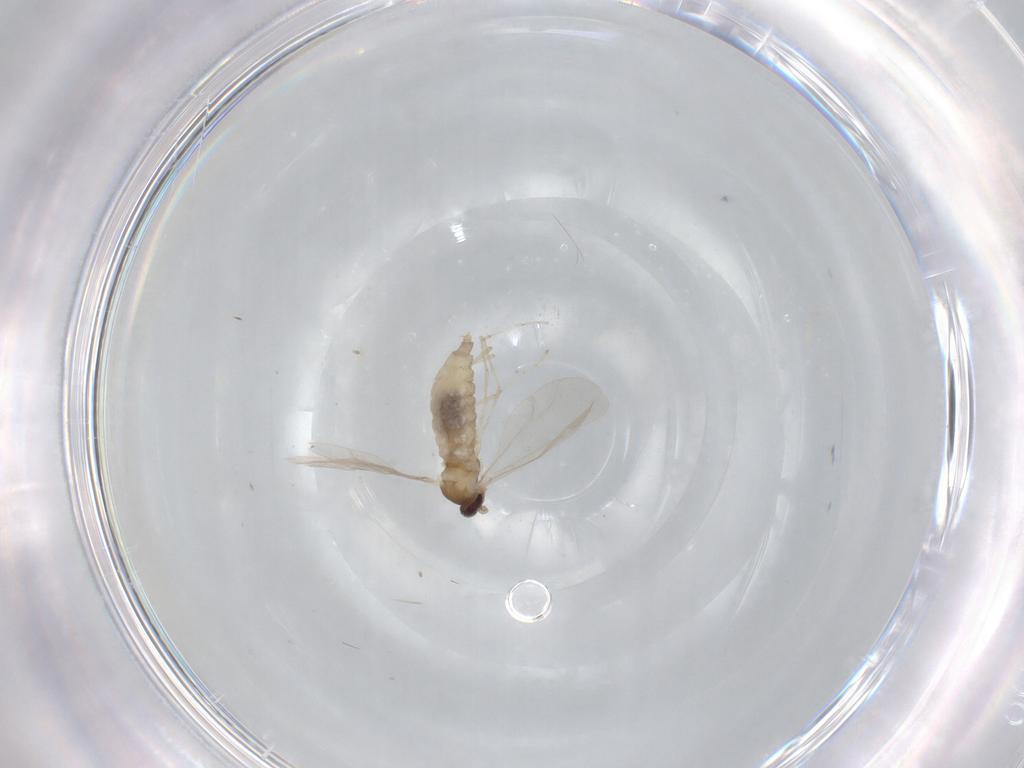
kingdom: Animalia
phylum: Arthropoda
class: Insecta
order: Diptera
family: Cecidomyiidae
